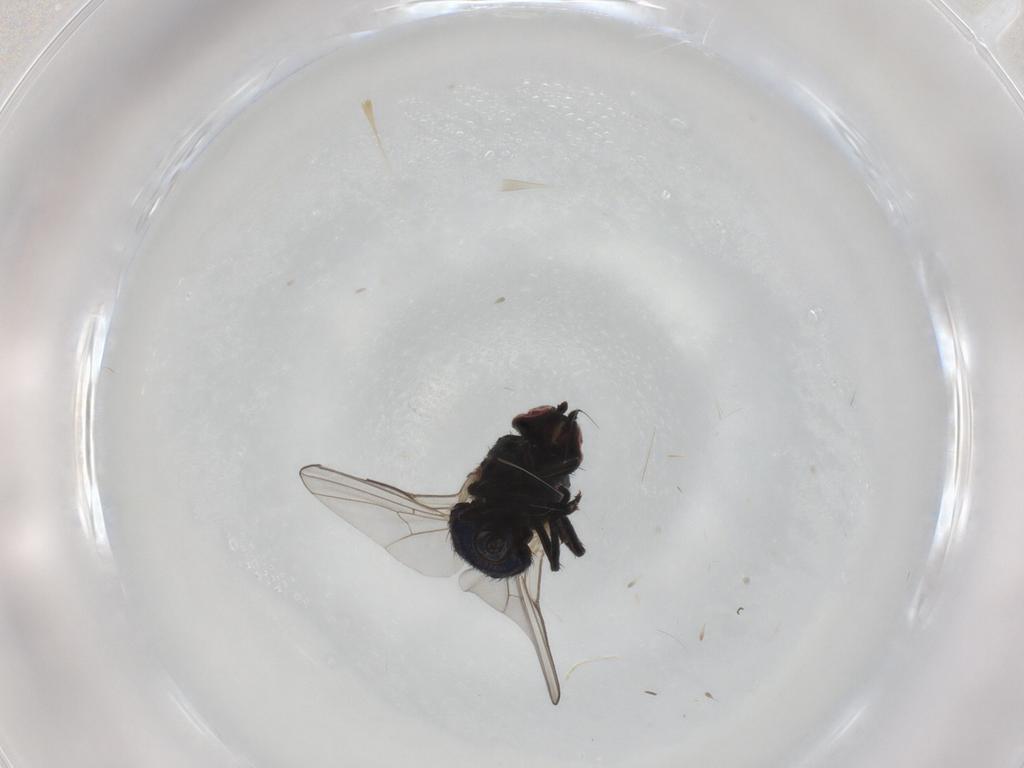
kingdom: Animalia
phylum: Arthropoda
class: Insecta
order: Diptera
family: Agromyzidae
